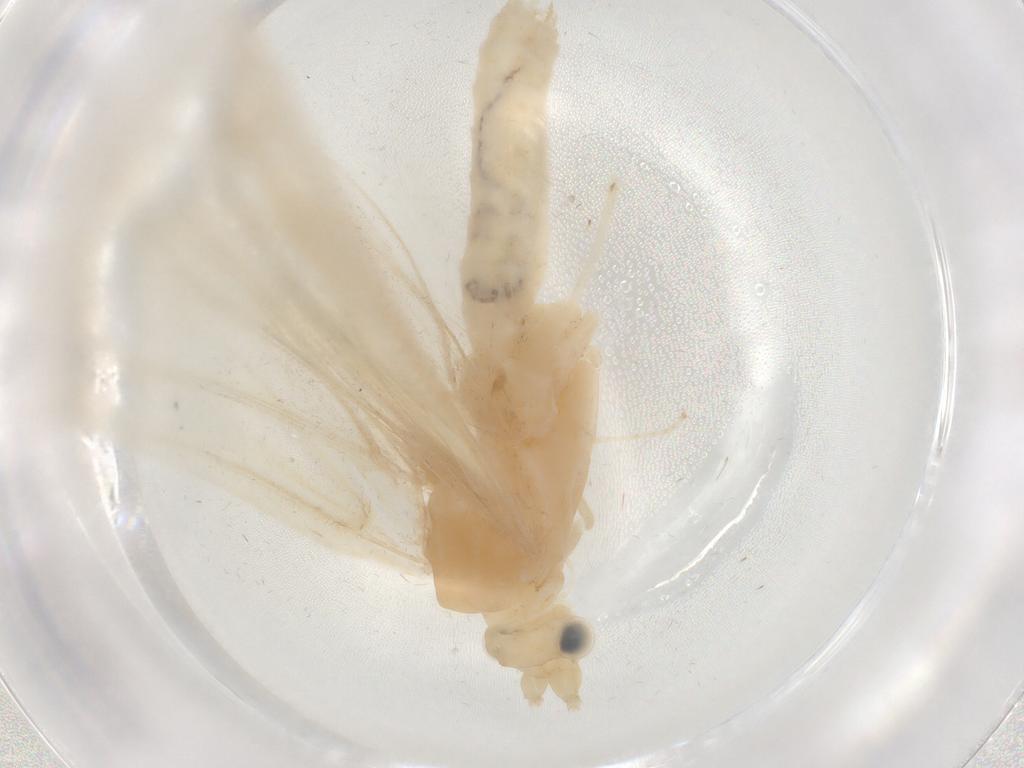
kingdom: Animalia
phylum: Arthropoda
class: Insecta
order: Trichoptera
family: Leptoceridae
